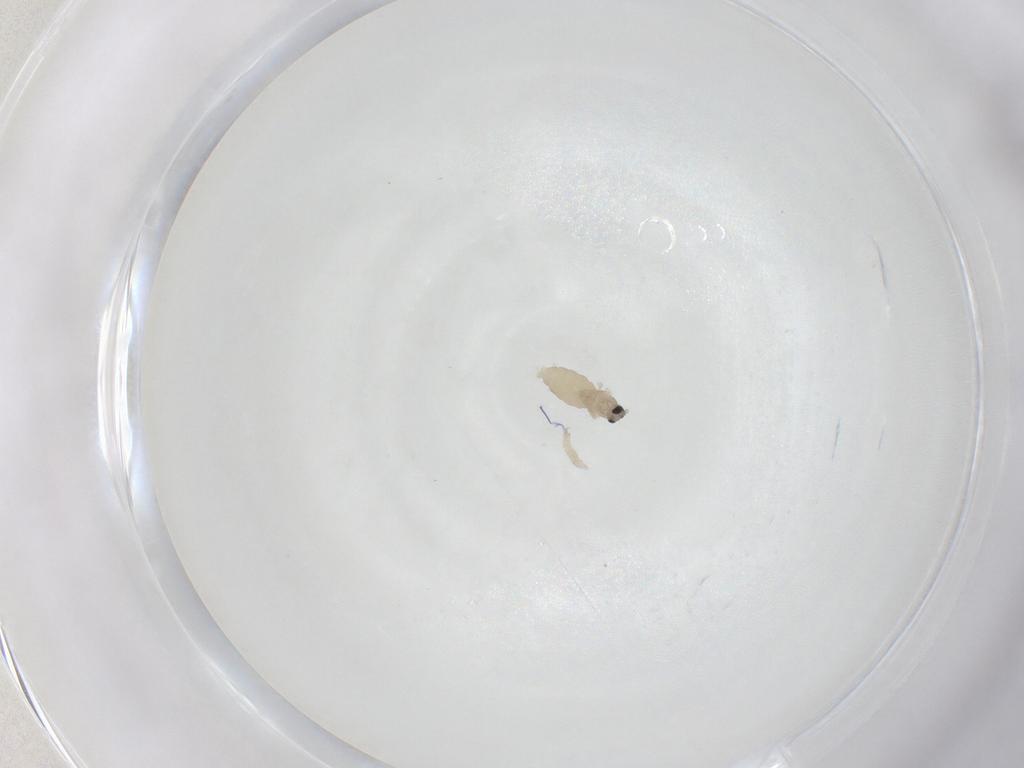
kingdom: Animalia
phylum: Arthropoda
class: Insecta
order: Diptera
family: Cecidomyiidae
